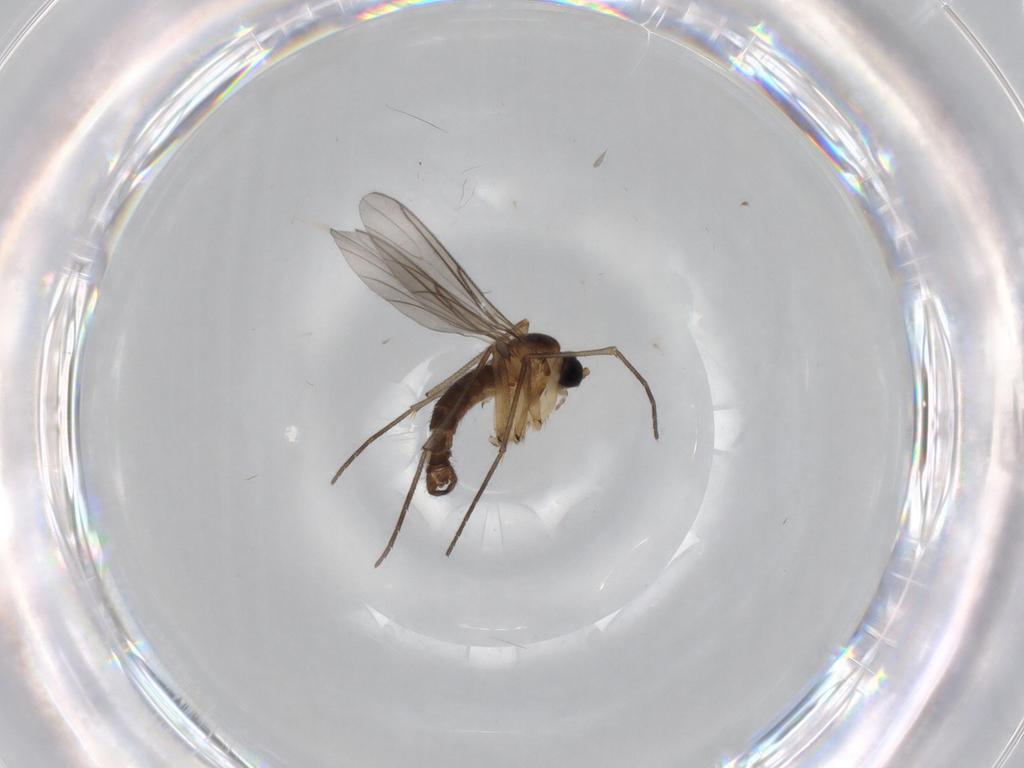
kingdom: Animalia
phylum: Arthropoda
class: Insecta
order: Diptera
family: Sciaridae
